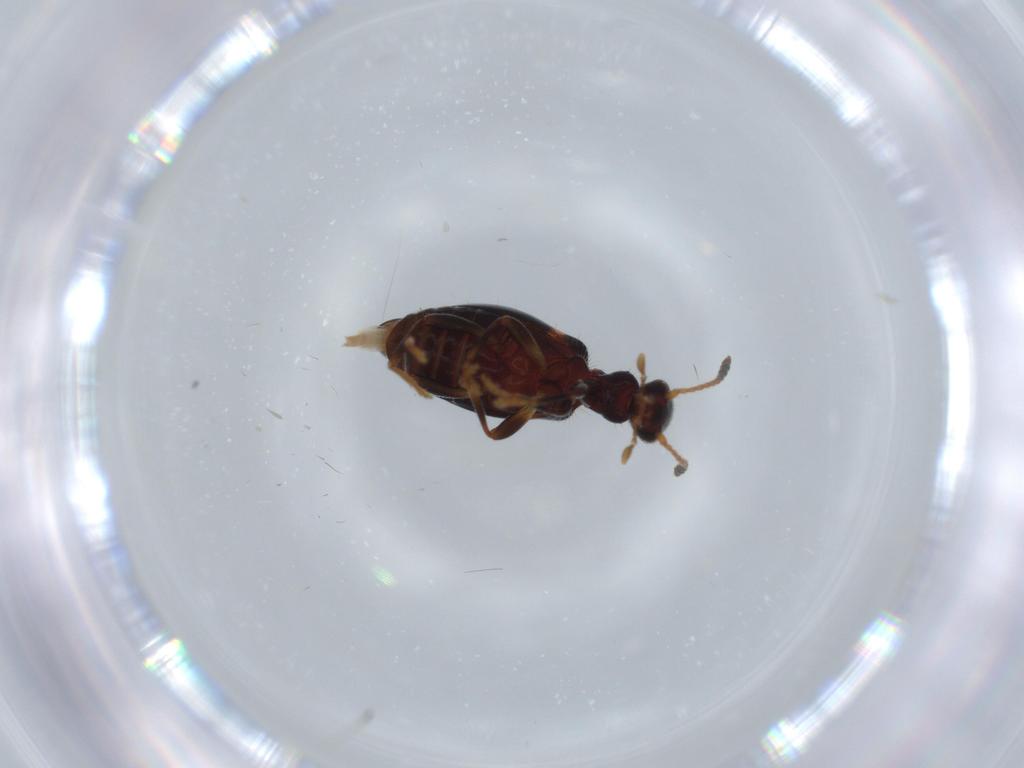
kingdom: Animalia
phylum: Arthropoda
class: Insecta
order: Coleoptera
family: Anthicidae
